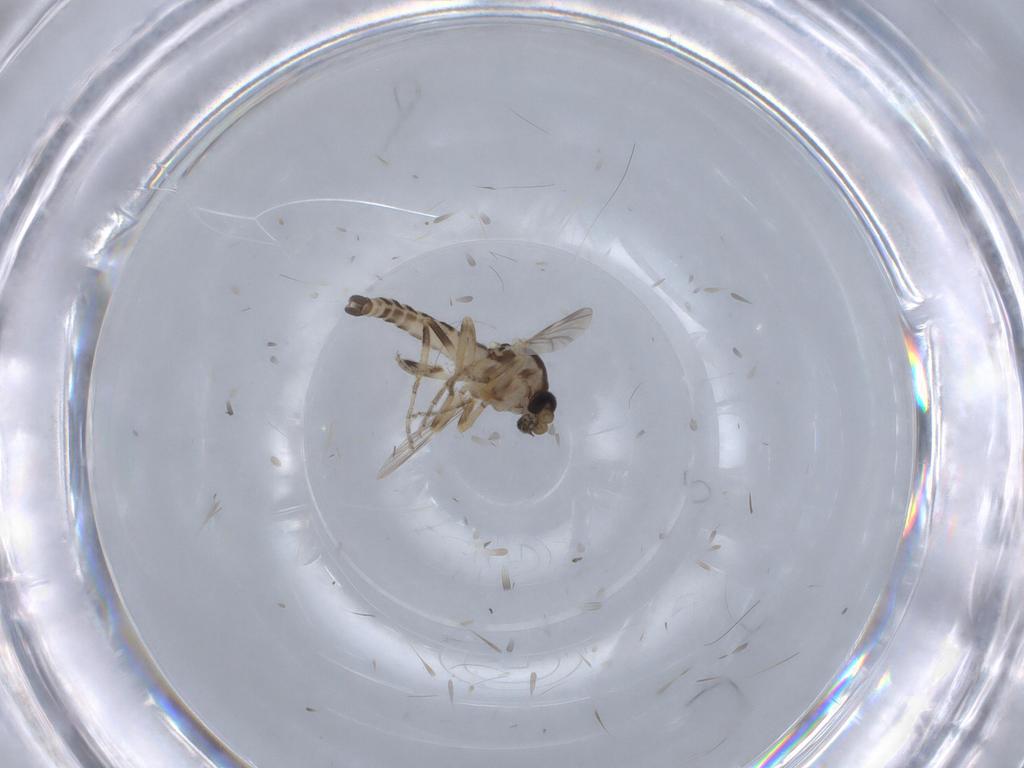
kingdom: Animalia
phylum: Arthropoda
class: Insecta
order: Diptera
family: Ceratopogonidae
